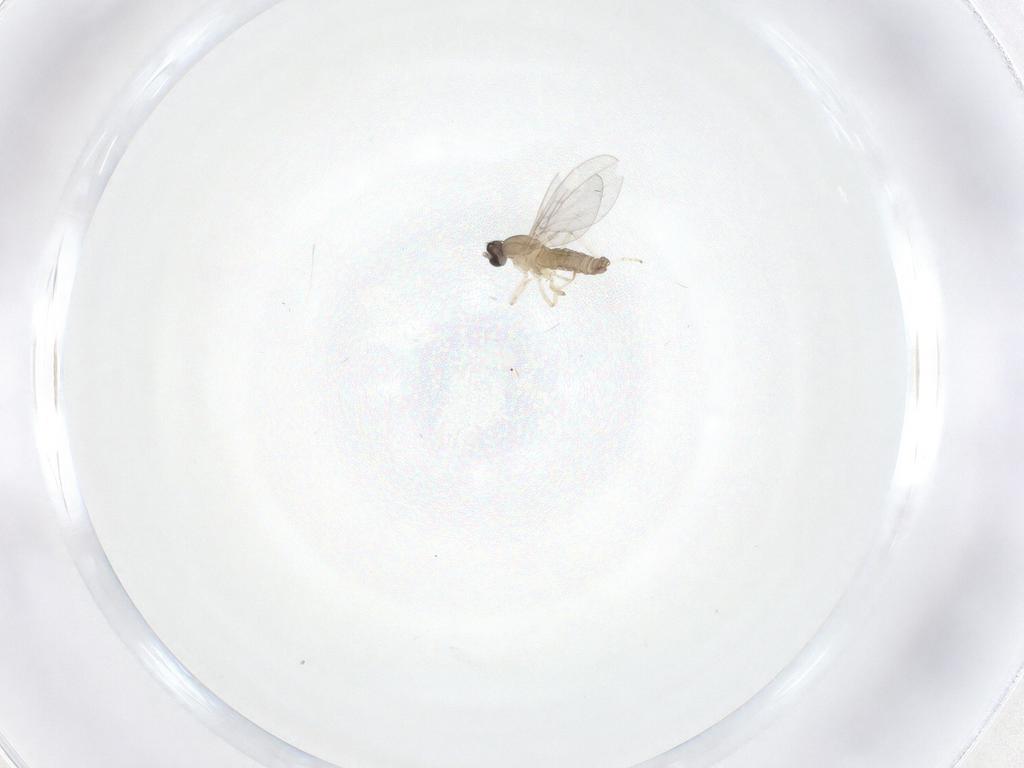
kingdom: Animalia
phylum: Arthropoda
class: Insecta
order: Diptera
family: Cecidomyiidae
